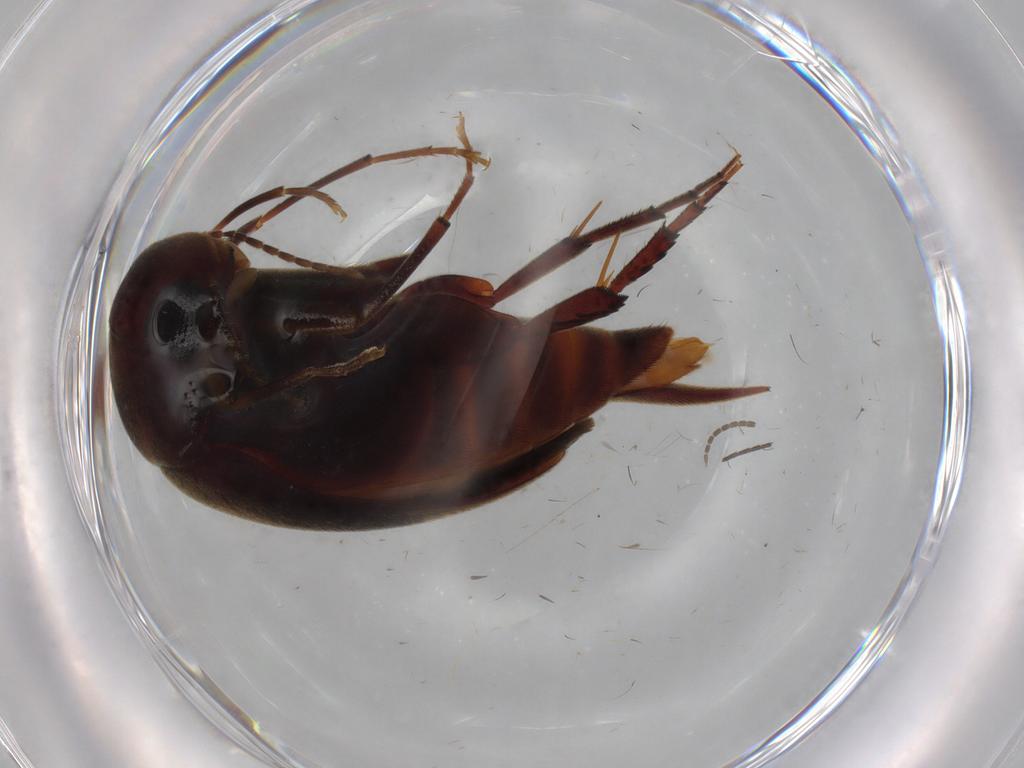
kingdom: Animalia
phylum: Arthropoda
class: Insecta
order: Coleoptera
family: Mordellidae
